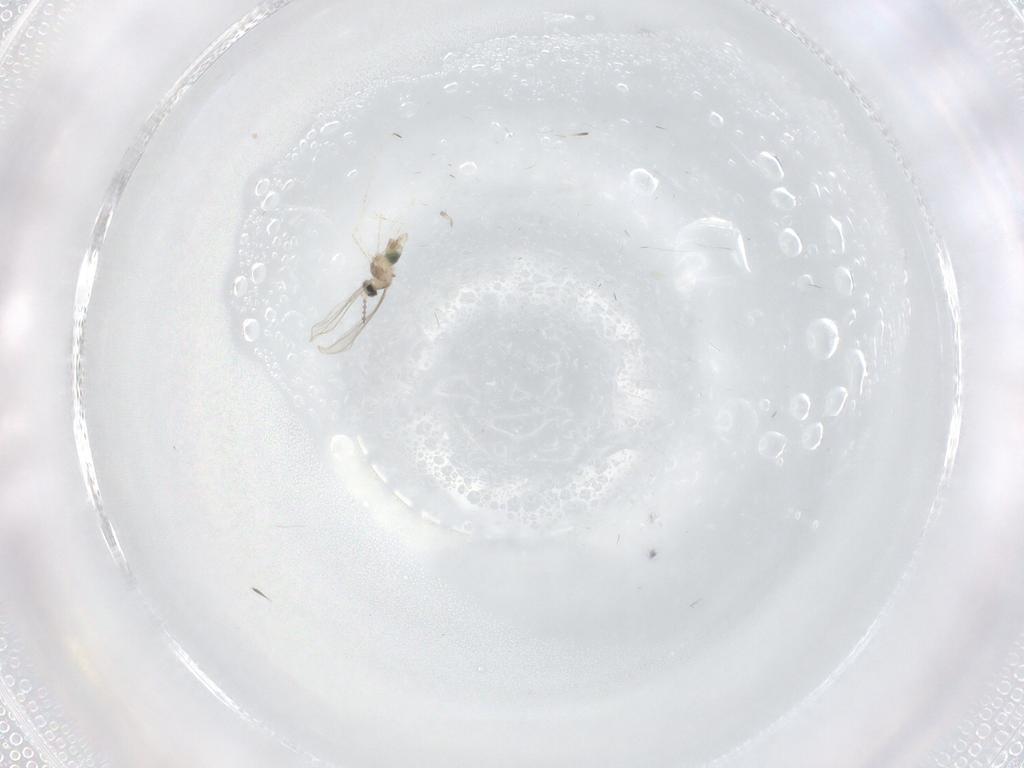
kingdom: Animalia
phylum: Arthropoda
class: Insecta
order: Diptera
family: Cecidomyiidae
